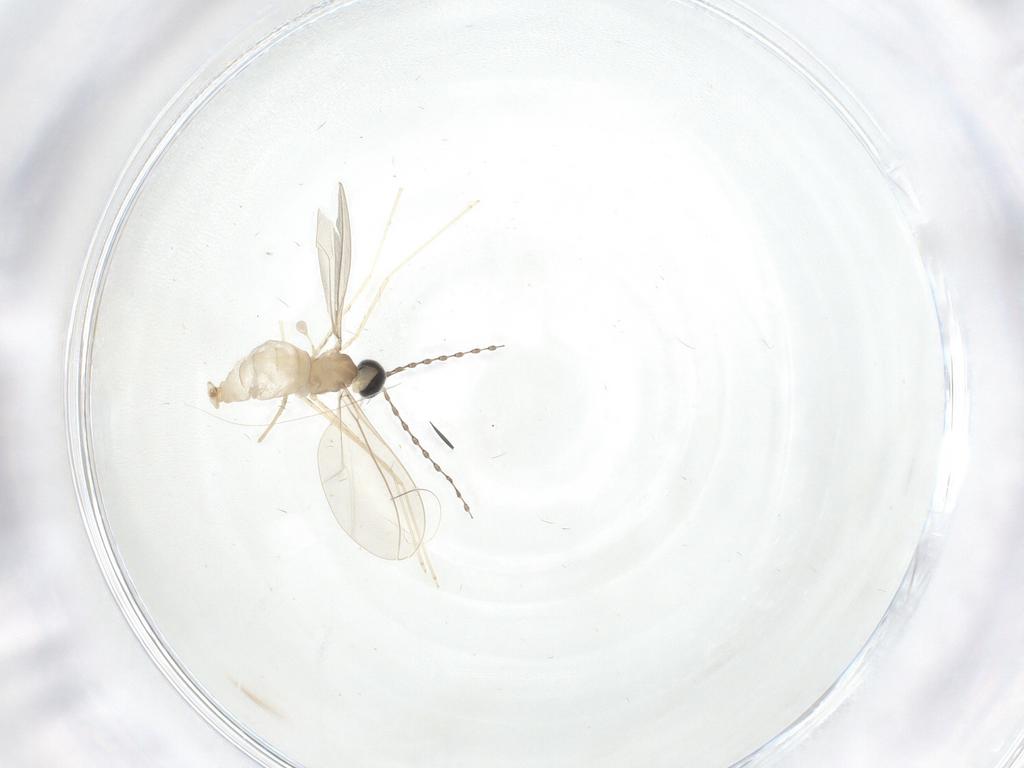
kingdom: Animalia
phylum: Arthropoda
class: Insecta
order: Diptera
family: Cecidomyiidae
